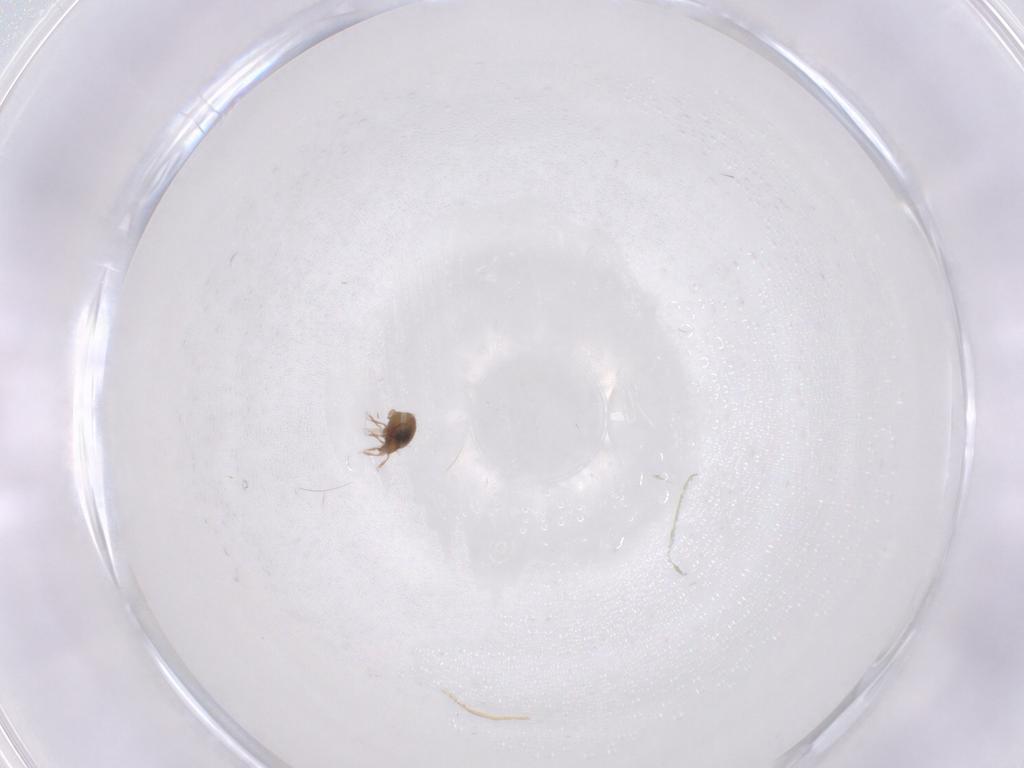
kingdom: Animalia
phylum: Arthropoda
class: Arachnida
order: Sarcoptiformes
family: Oribatulidae
